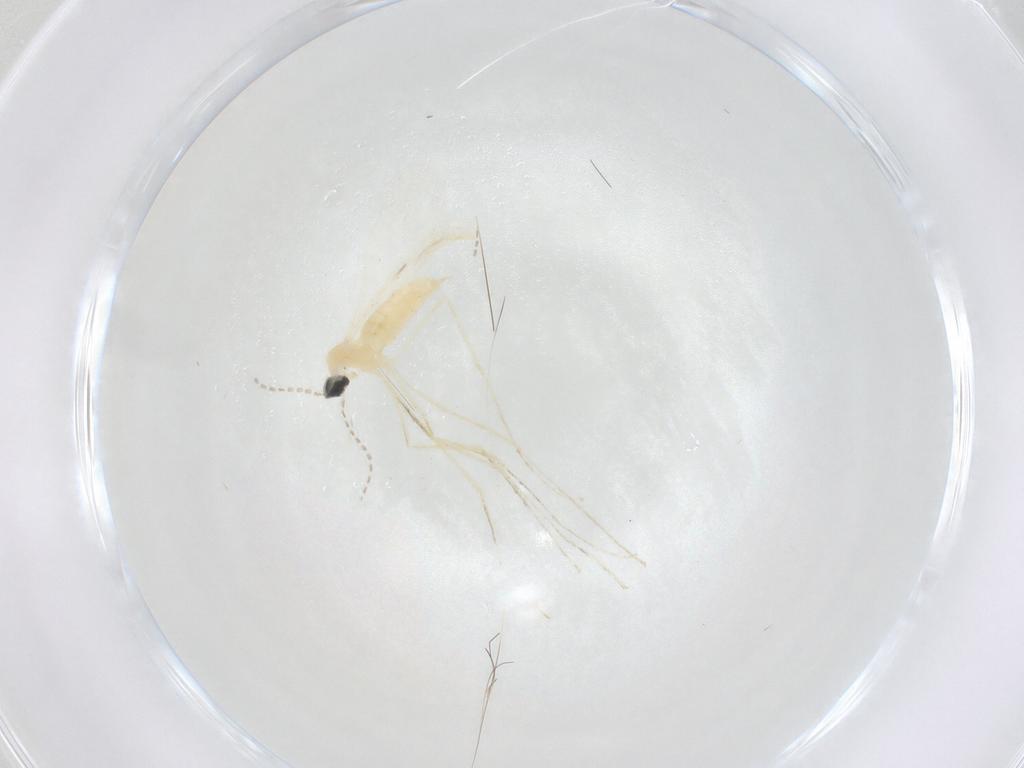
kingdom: Animalia
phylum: Arthropoda
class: Insecta
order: Diptera
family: Cecidomyiidae
